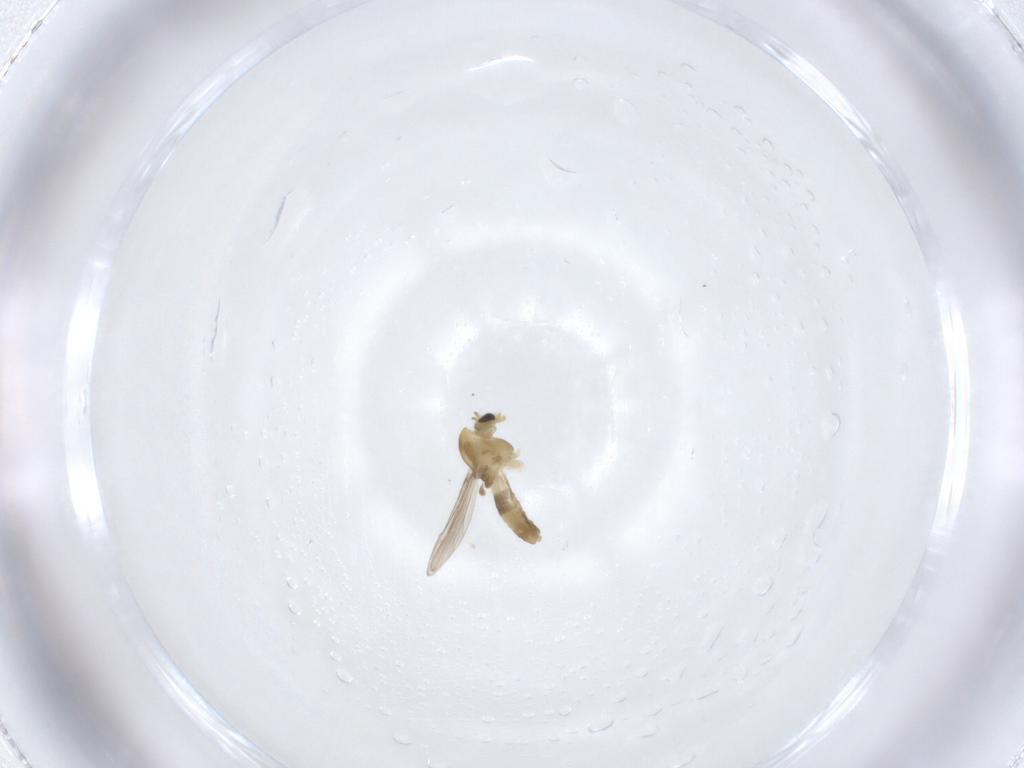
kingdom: Animalia
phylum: Arthropoda
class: Insecta
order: Diptera
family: Chironomidae
